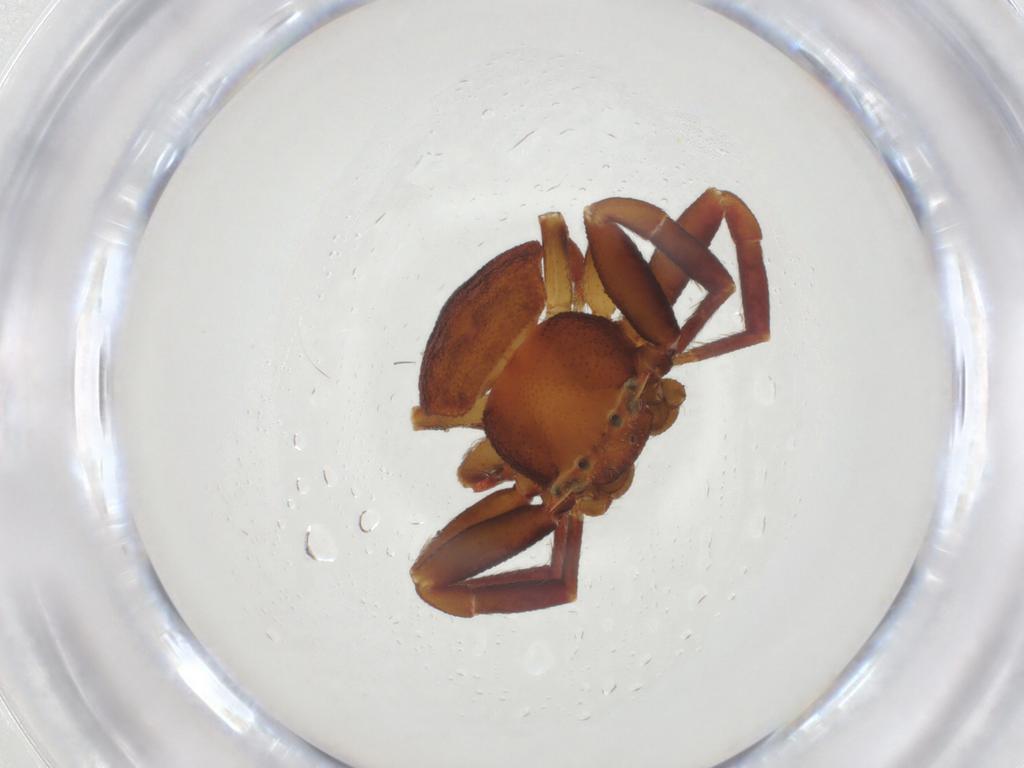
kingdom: Animalia
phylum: Arthropoda
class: Arachnida
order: Araneae
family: Thomisidae
